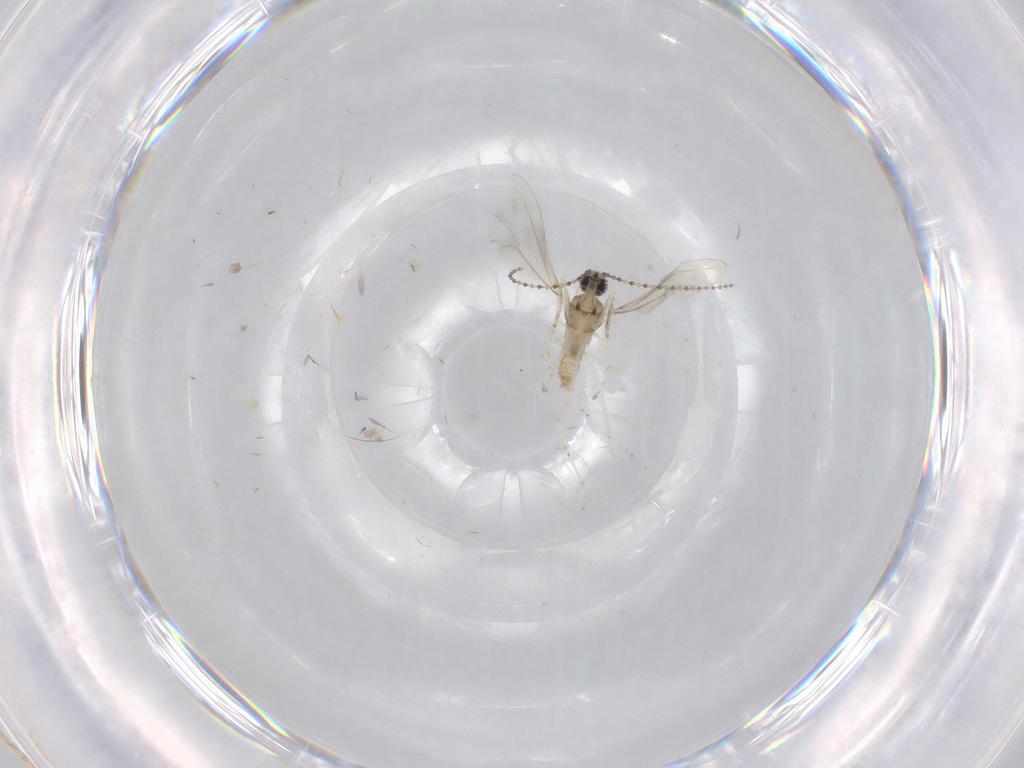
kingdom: Animalia
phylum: Arthropoda
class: Insecta
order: Diptera
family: Cecidomyiidae
